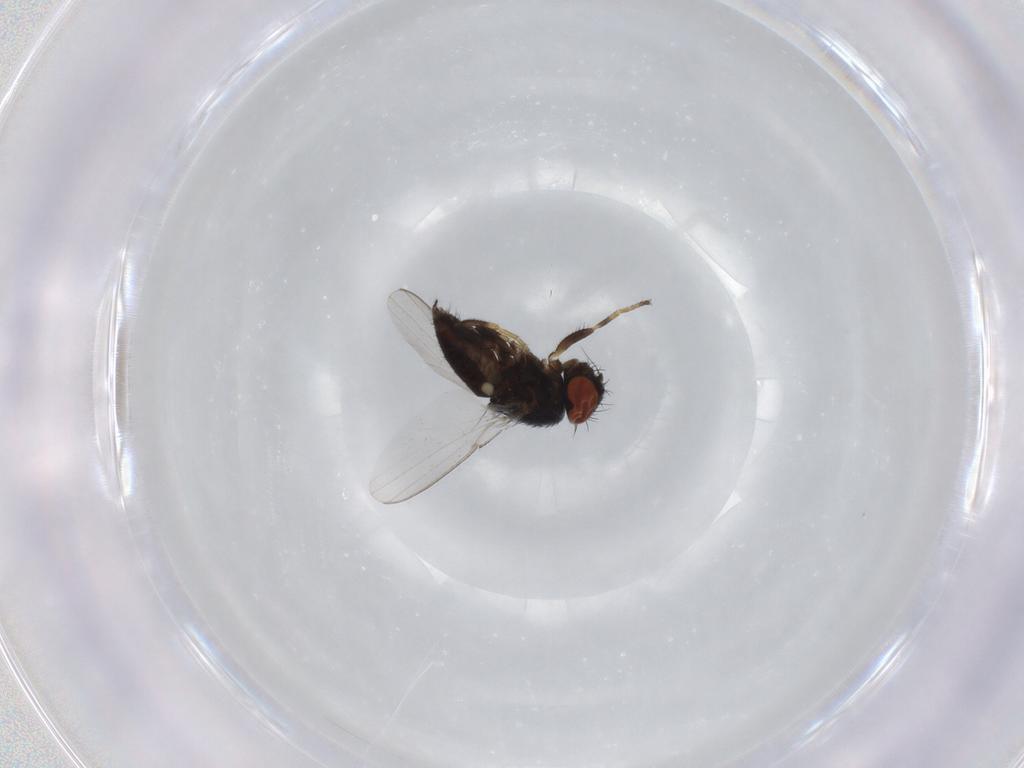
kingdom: Animalia
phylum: Arthropoda
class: Insecta
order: Diptera
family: Milichiidae
